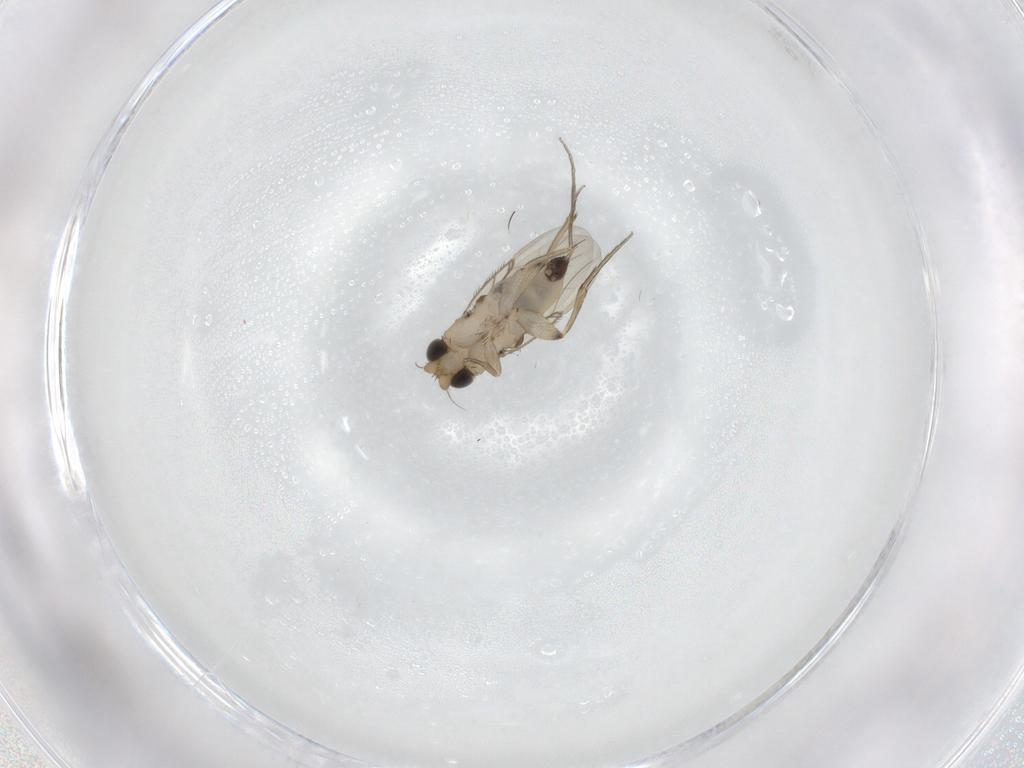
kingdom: Animalia
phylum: Arthropoda
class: Insecta
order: Diptera
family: Phoridae
